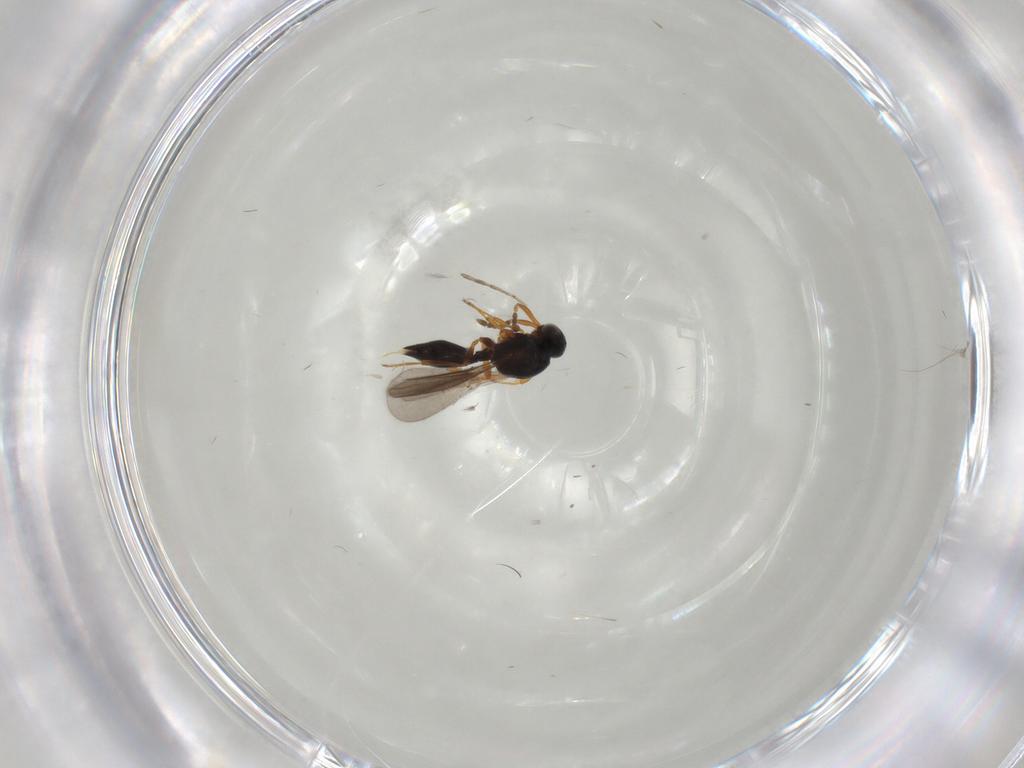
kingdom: Animalia
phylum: Arthropoda
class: Insecta
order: Hymenoptera
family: Platygastridae
